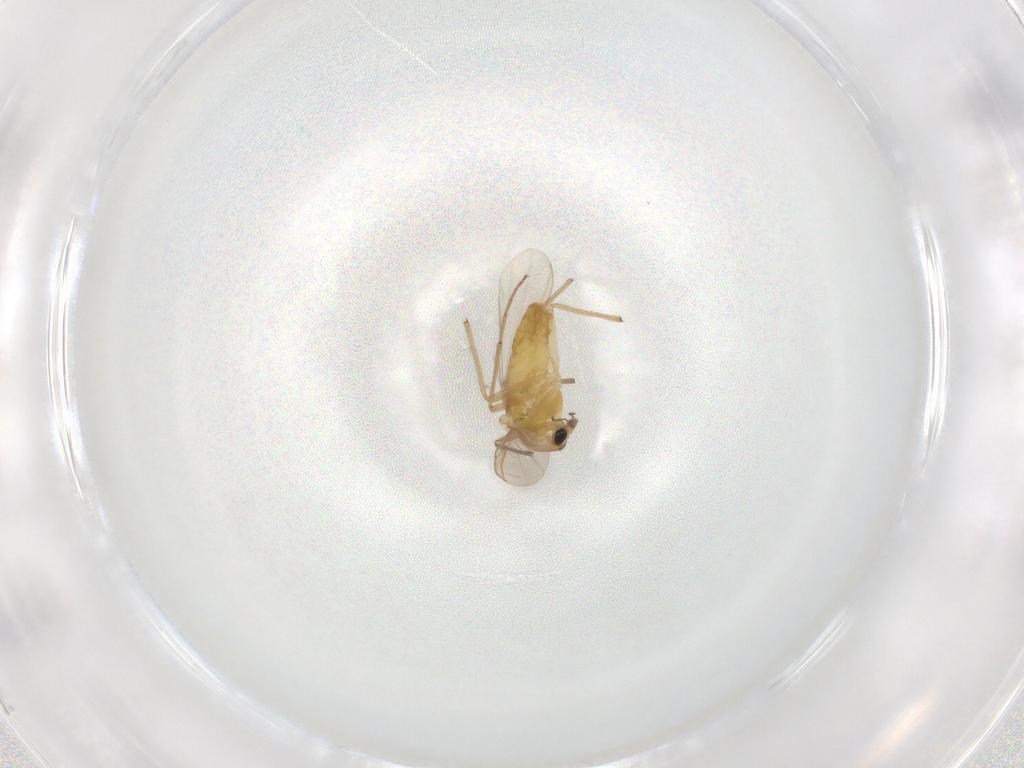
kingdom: Animalia
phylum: Arthropoda
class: Insecta
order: Diptera
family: Chironomidae
